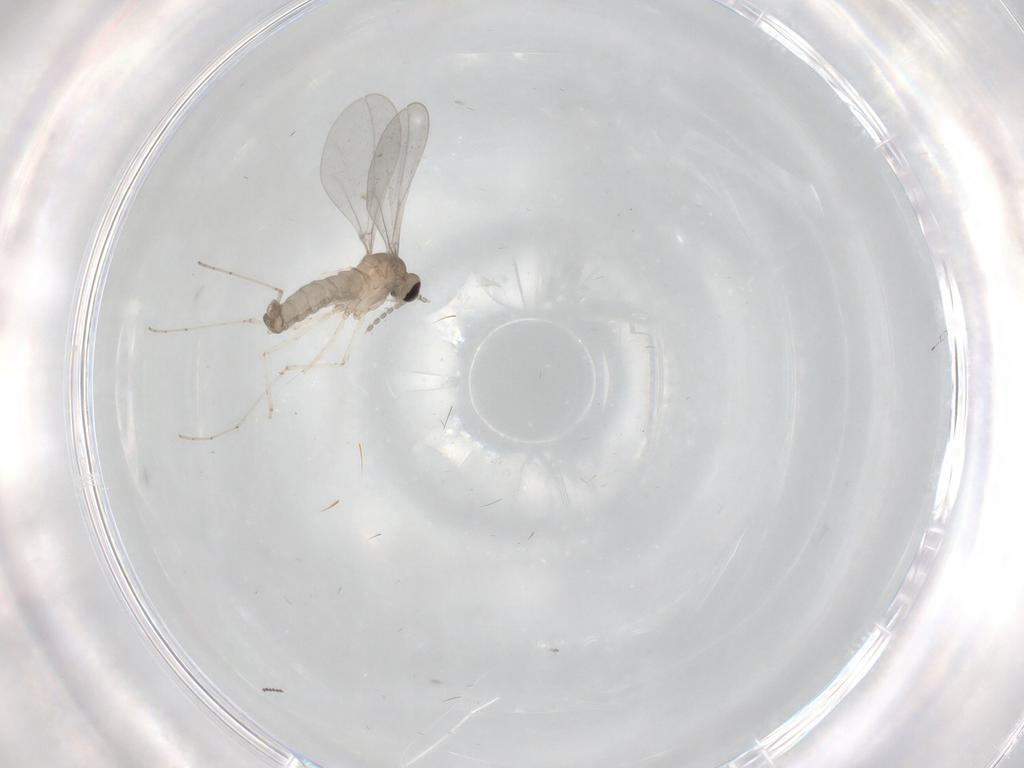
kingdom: Animalia
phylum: Arthropoda
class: Insecta
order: Diptera
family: Cecidomyiidae
